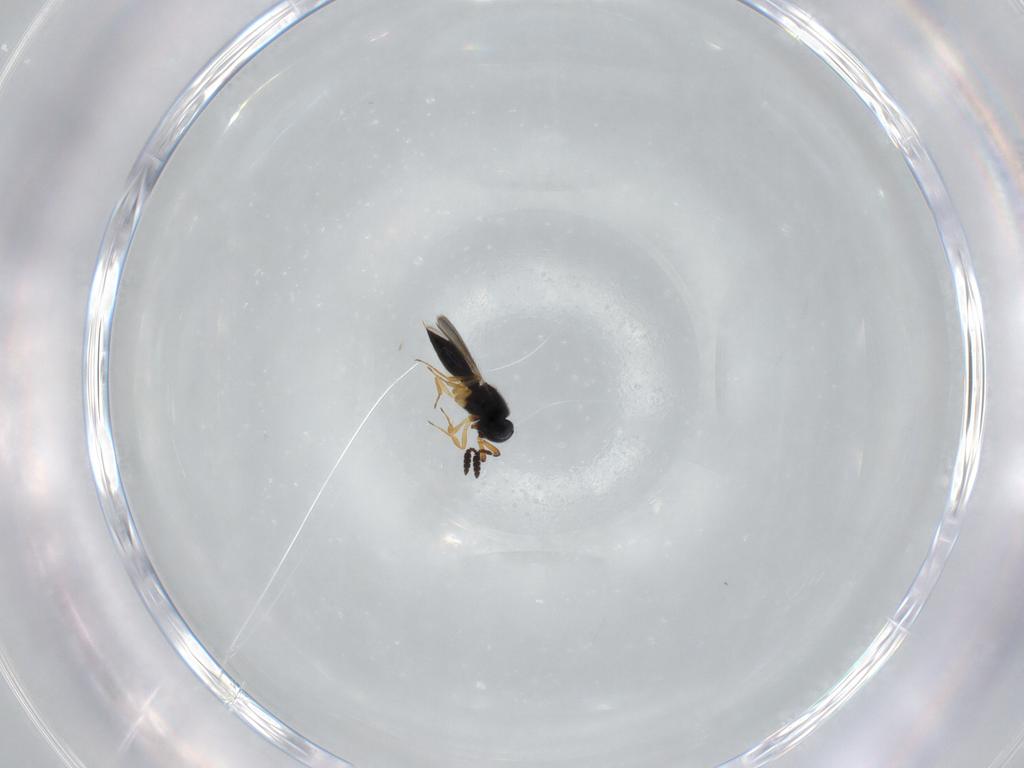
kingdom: Animalia
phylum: Arthropoda
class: Insecta
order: Hymenoptera
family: Scelionidae
